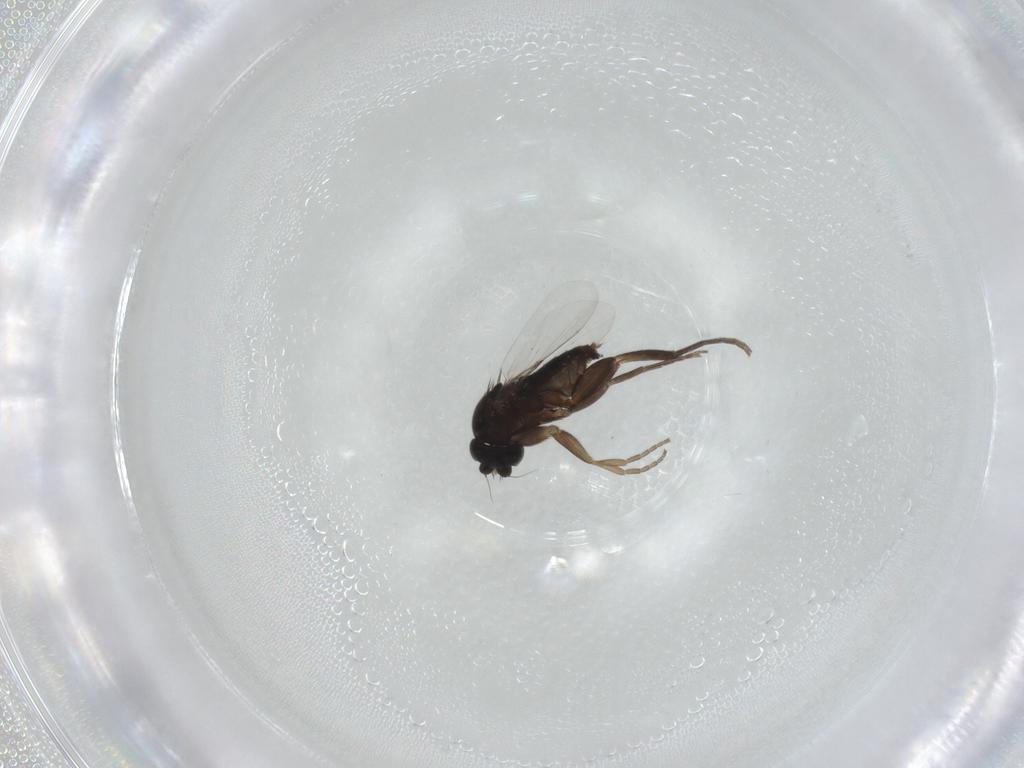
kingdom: Animalia
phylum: Arthropoda
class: Insecta
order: Diptera
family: Phoridae
